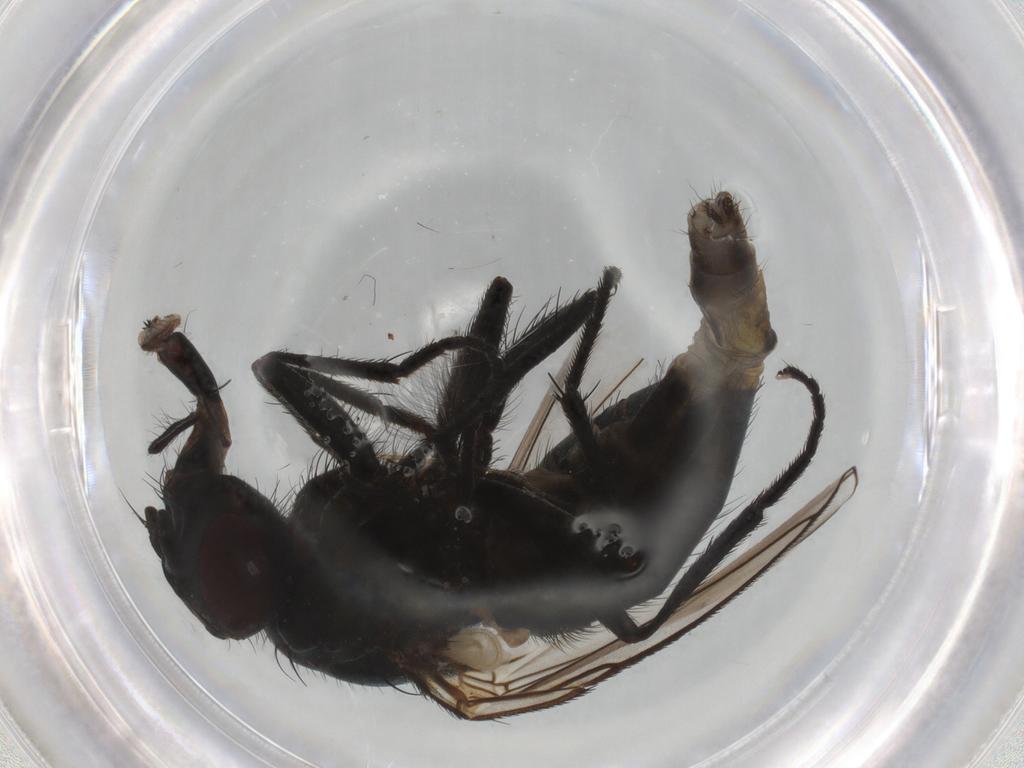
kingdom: Animalia
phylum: Arthropoda
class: Insecta
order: Diptera
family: Muscidae
